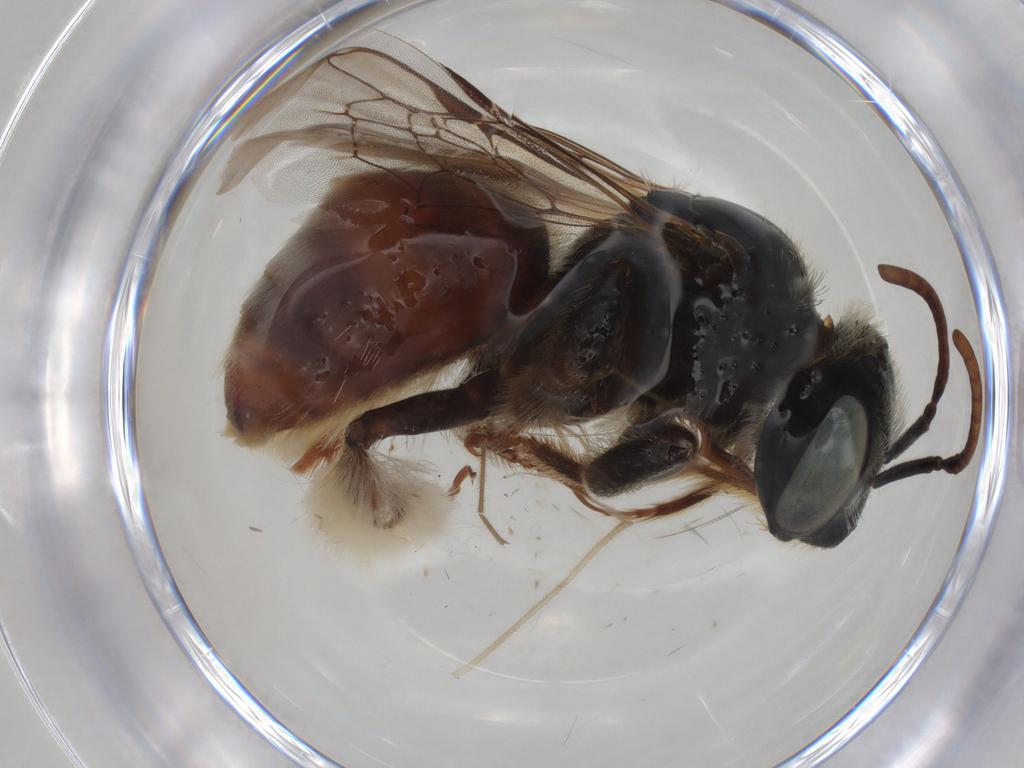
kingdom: Animalia
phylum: Arthropoda
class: Insecta
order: Hymenoptera
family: Apidae
